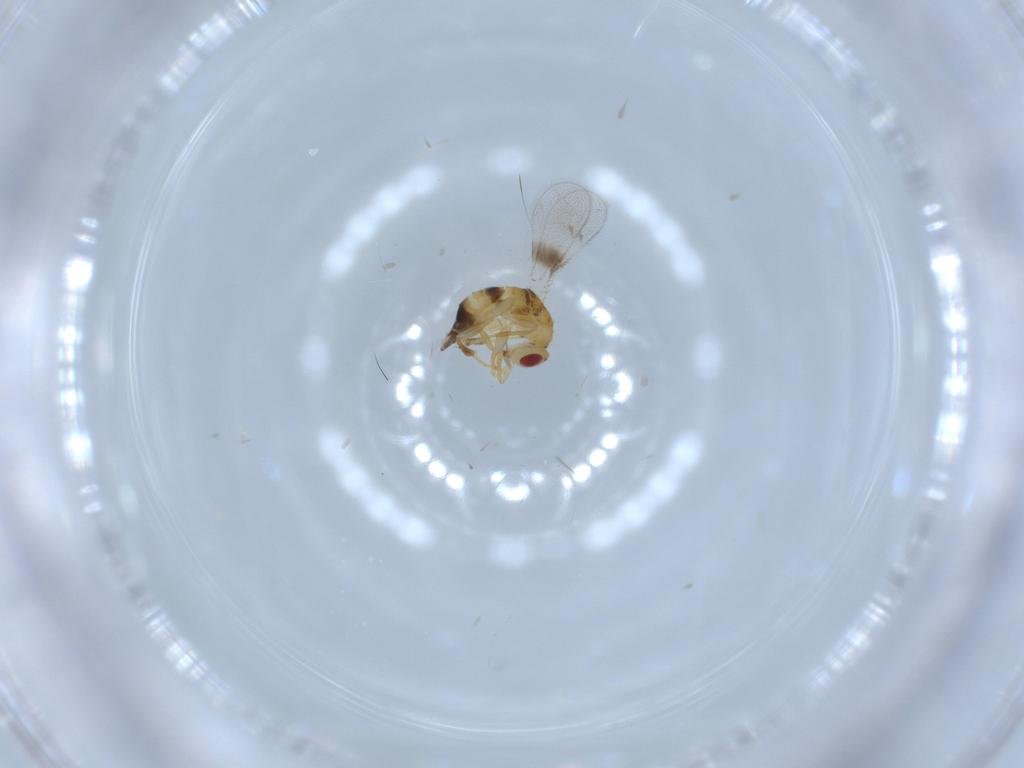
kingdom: Animalia
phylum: Arthropoda
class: Insecta
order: Hymenoptera
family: Torymidae
